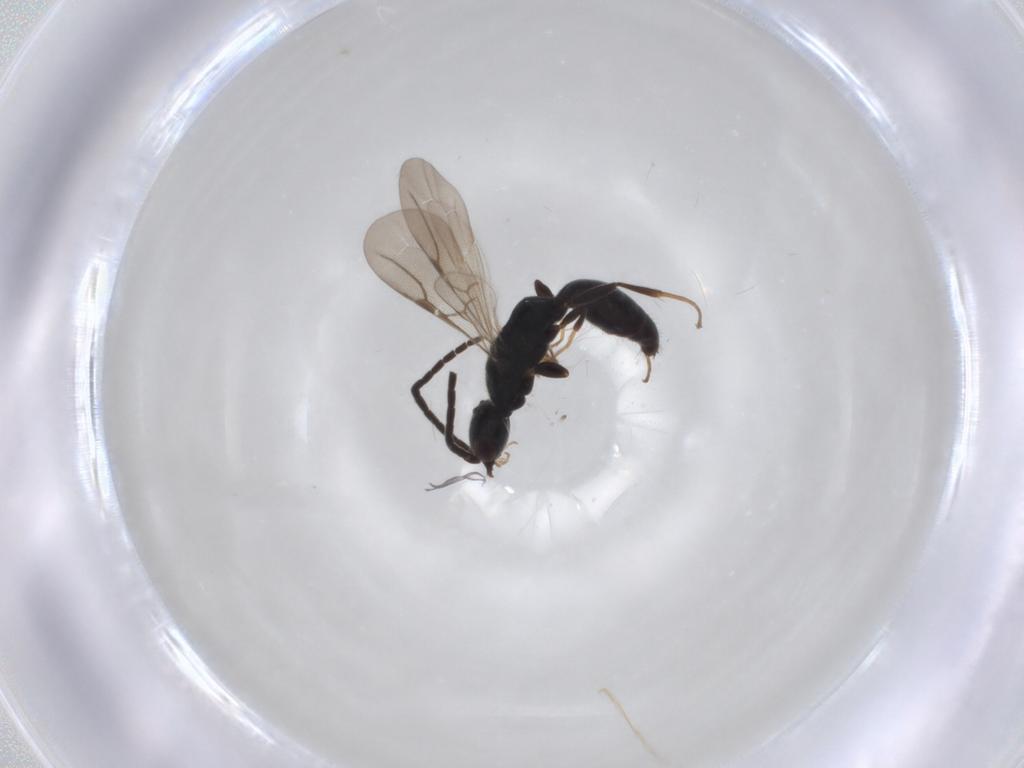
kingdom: Animalia
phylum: Arthropoda
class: Insecta
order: Hymenoptera
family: Bethylidae
